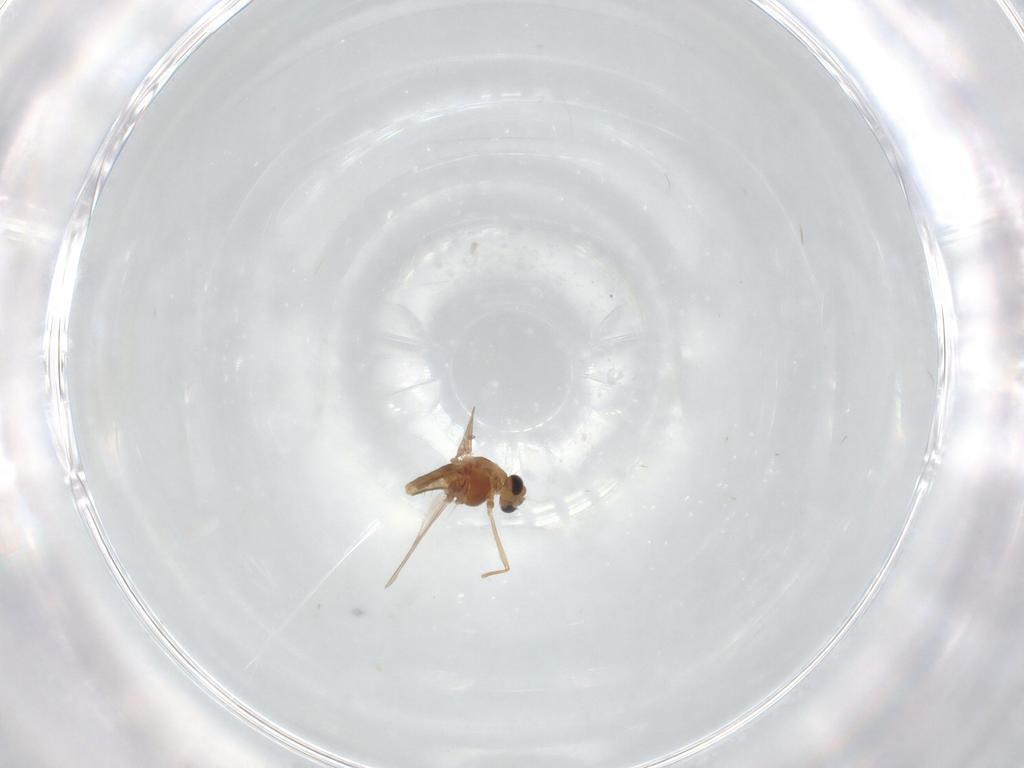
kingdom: Animalia
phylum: Arthropoda
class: Insecta
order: Diptera
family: Chironomidae
